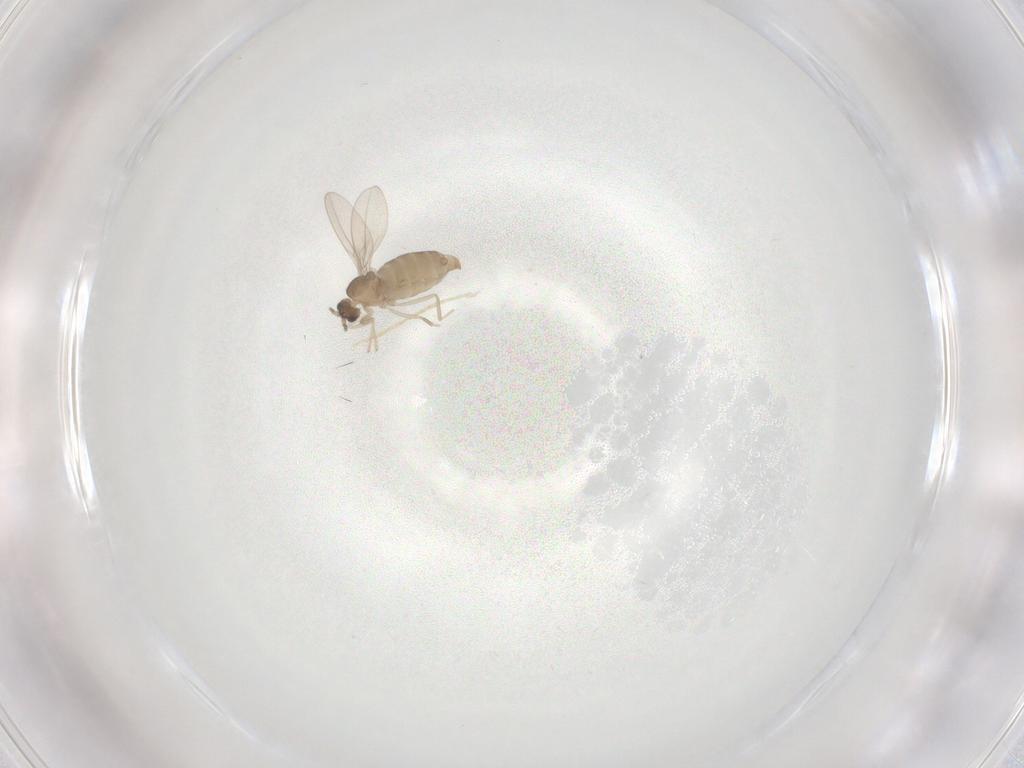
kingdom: Animalia
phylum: Arthropoda
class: Insecta
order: Diptera
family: Cecidomyiidae
